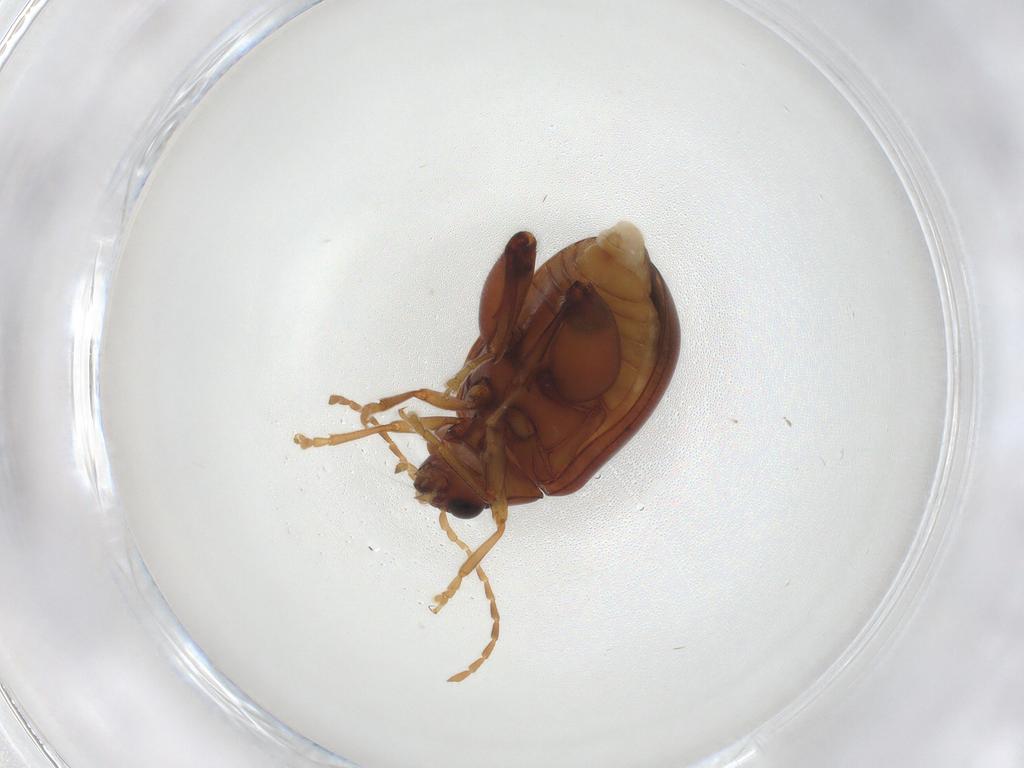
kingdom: Animalia
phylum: Arthropoda
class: Insecta
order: Coleoptera
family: Chrysomelidae
